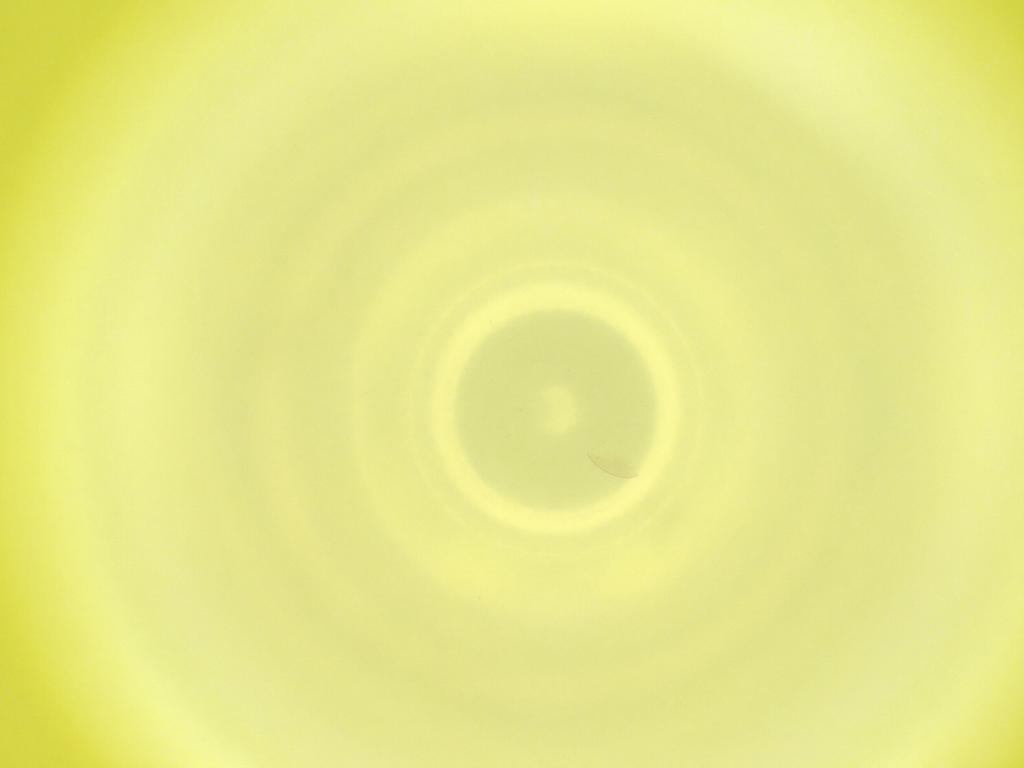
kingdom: Animalia
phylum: Arthropoda
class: Insecta
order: Diptera
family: Cecidomyiidae
